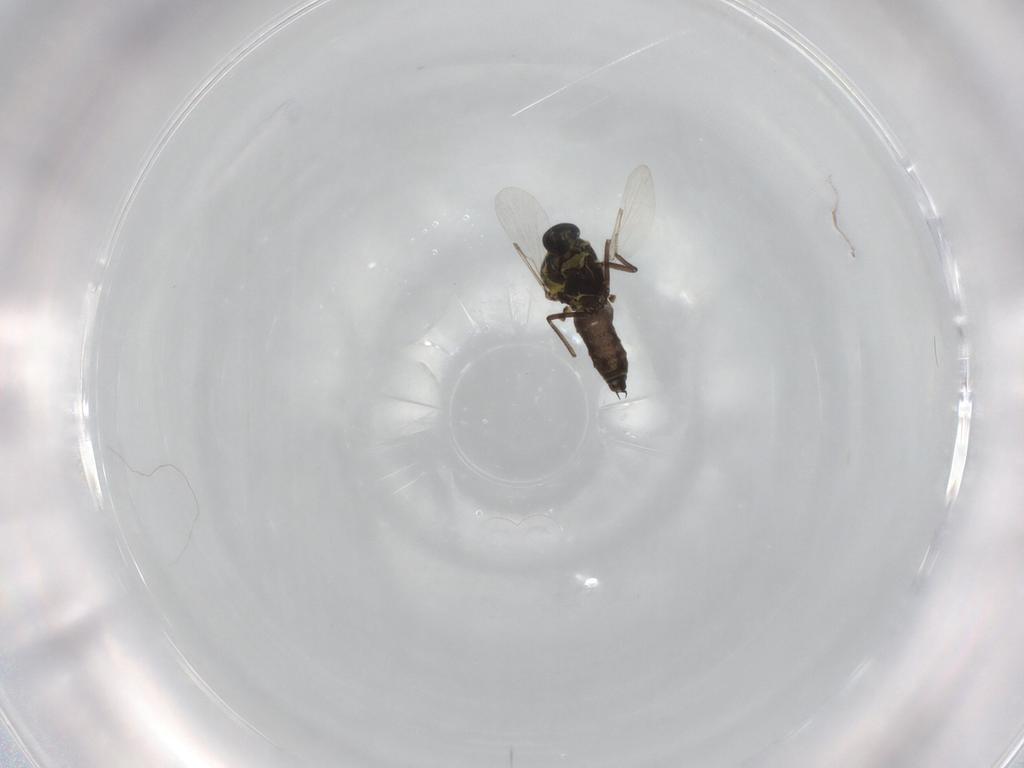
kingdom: Animalia
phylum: Arthropoda
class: Insecta
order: Diptera
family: Ceratopogonidae
